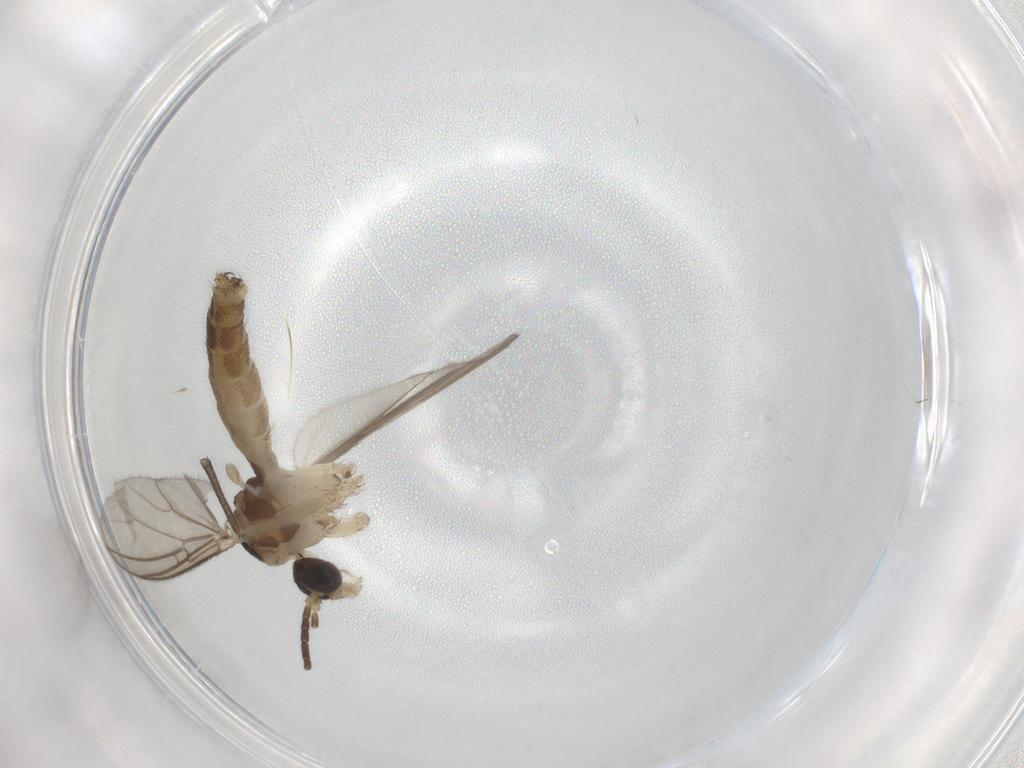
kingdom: Animalia
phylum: Arthropoda
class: Insecta
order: Diptera
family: Mycetophilidae
